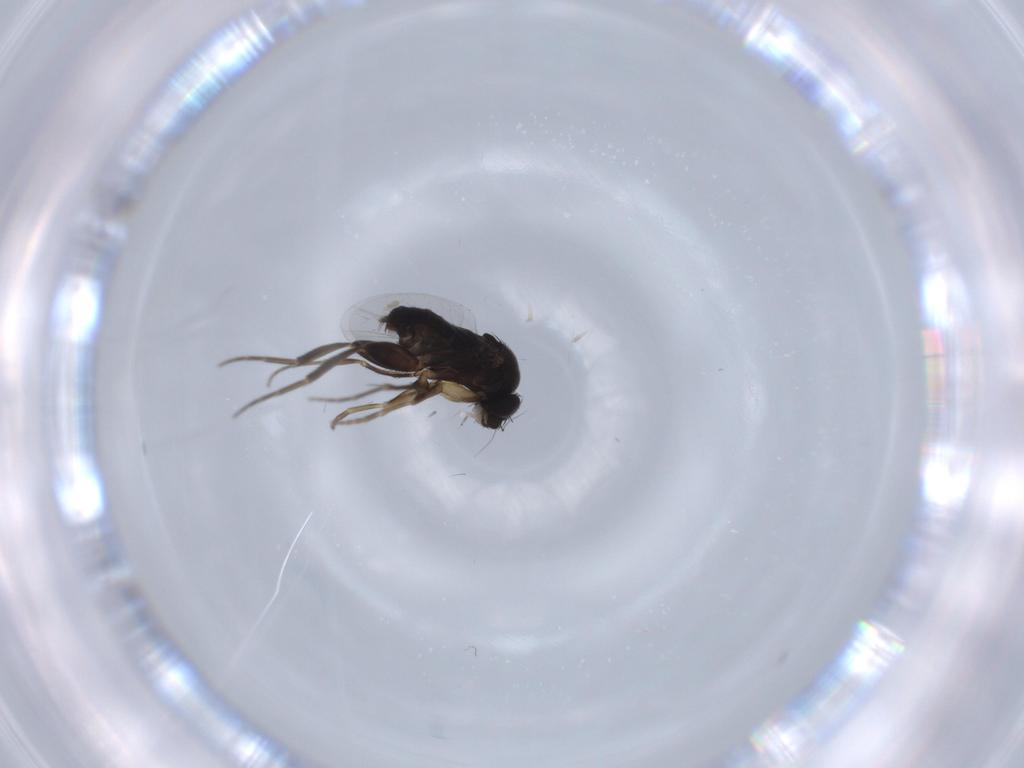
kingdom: Animalia
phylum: Arthropoda
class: Insecta
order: Diptera
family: Phoridae
